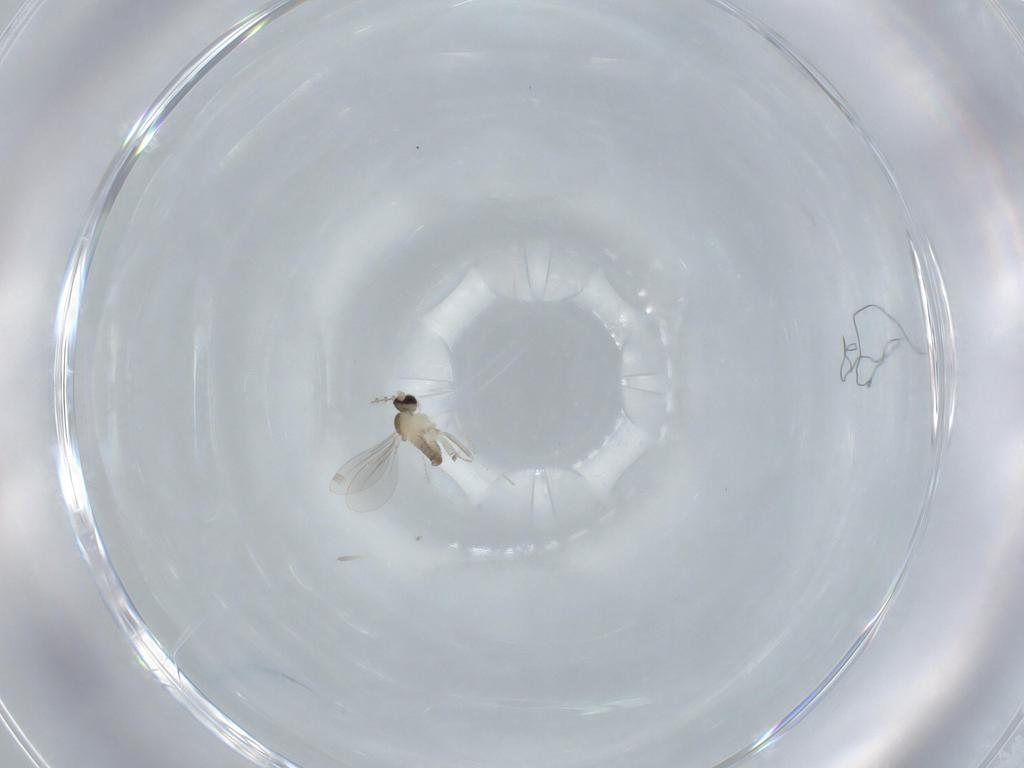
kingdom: Animalia
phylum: Arthropoda
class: Insecta
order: Diptera
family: Cecidomyiidae
